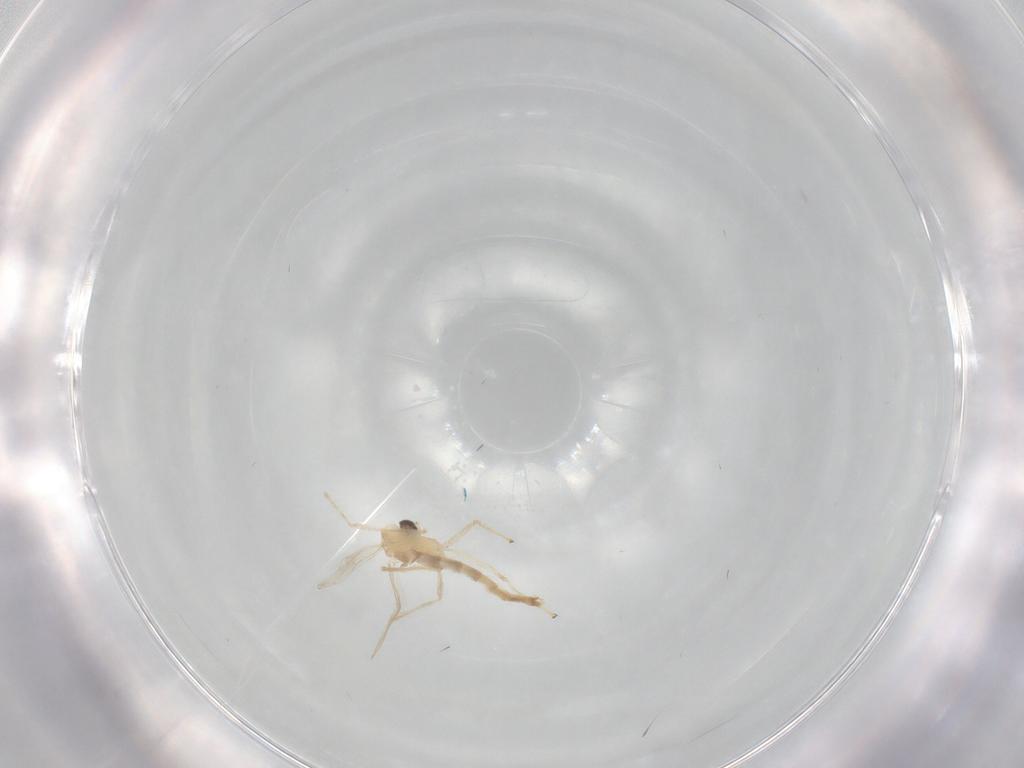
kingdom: Animalia
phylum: Arthropoda
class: Insecta
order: Diptera
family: Chironomidae
